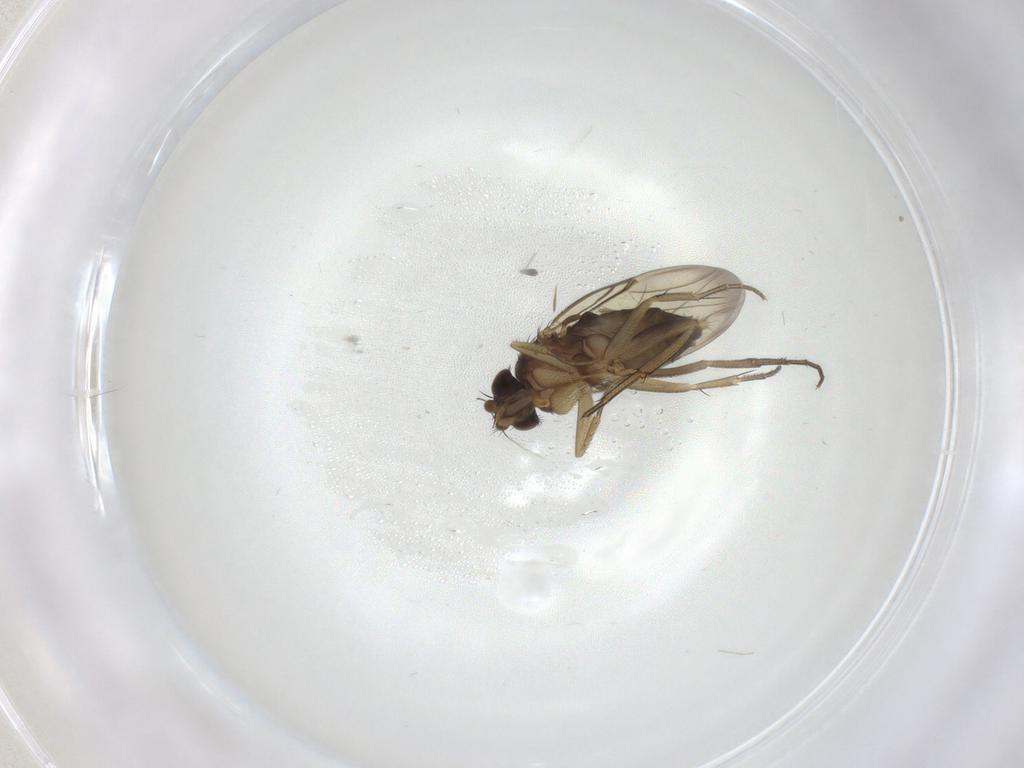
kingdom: Animalia
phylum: Arthropoda
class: Insecta
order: Diptera
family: Phoridae
